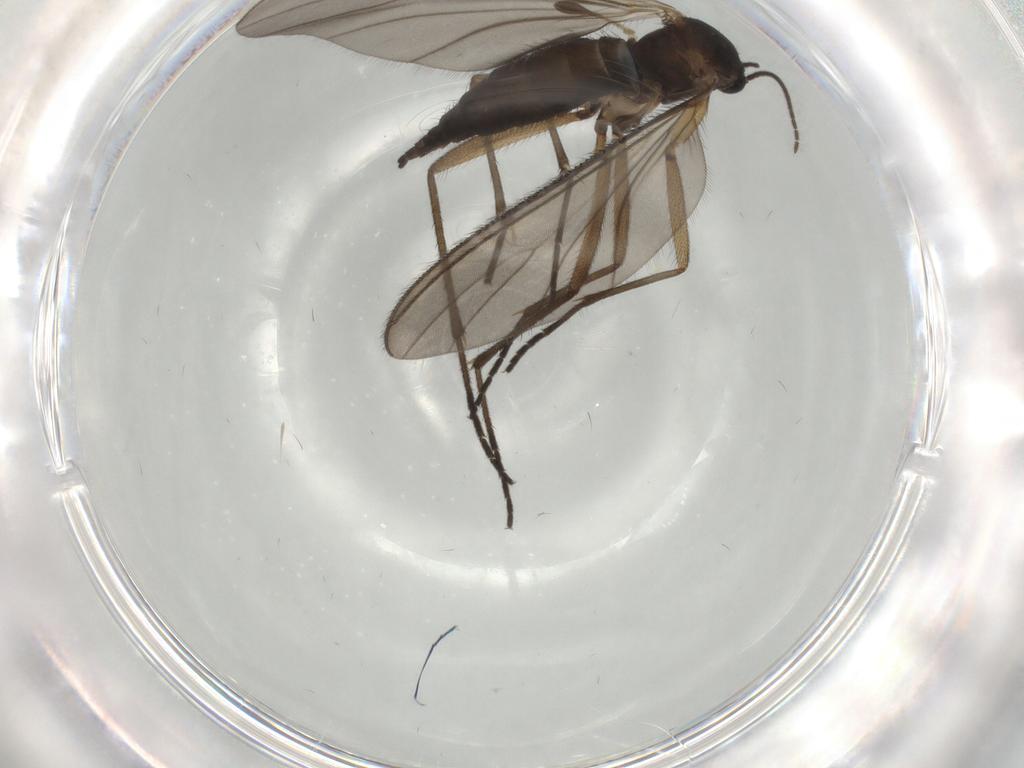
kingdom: Animalia
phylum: Arthropoda
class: Insecta
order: Diptera
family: Sciaridae
